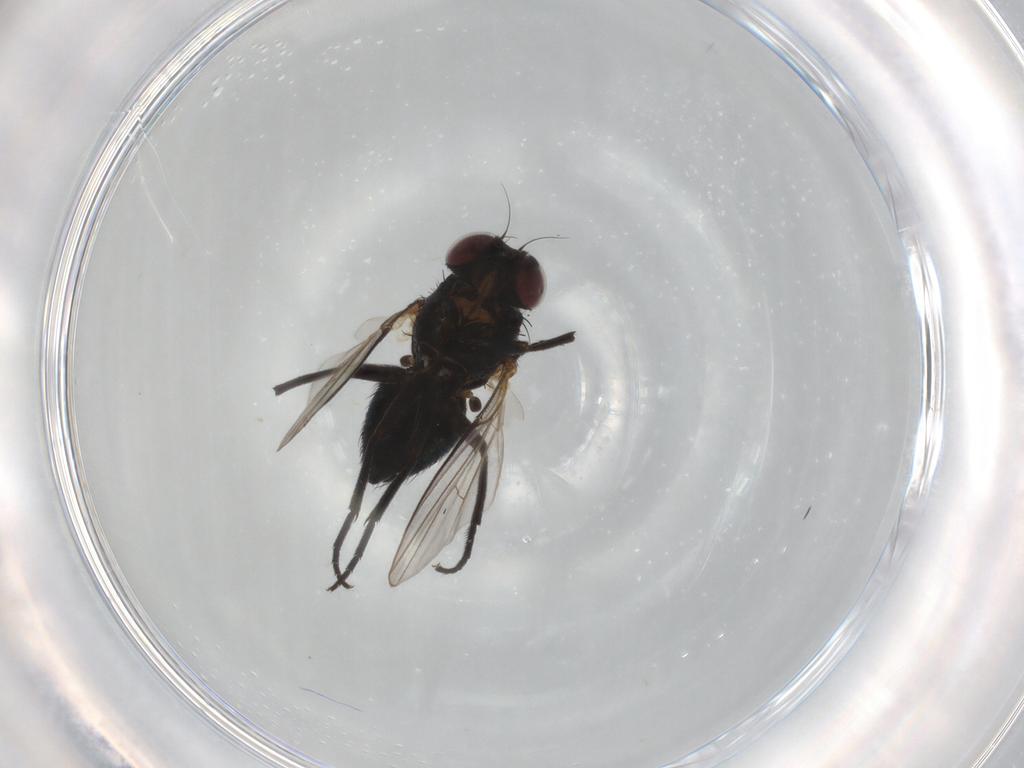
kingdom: Animalia
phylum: Arthropoda
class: Insecta
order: Diptera
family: Agromyzidae
